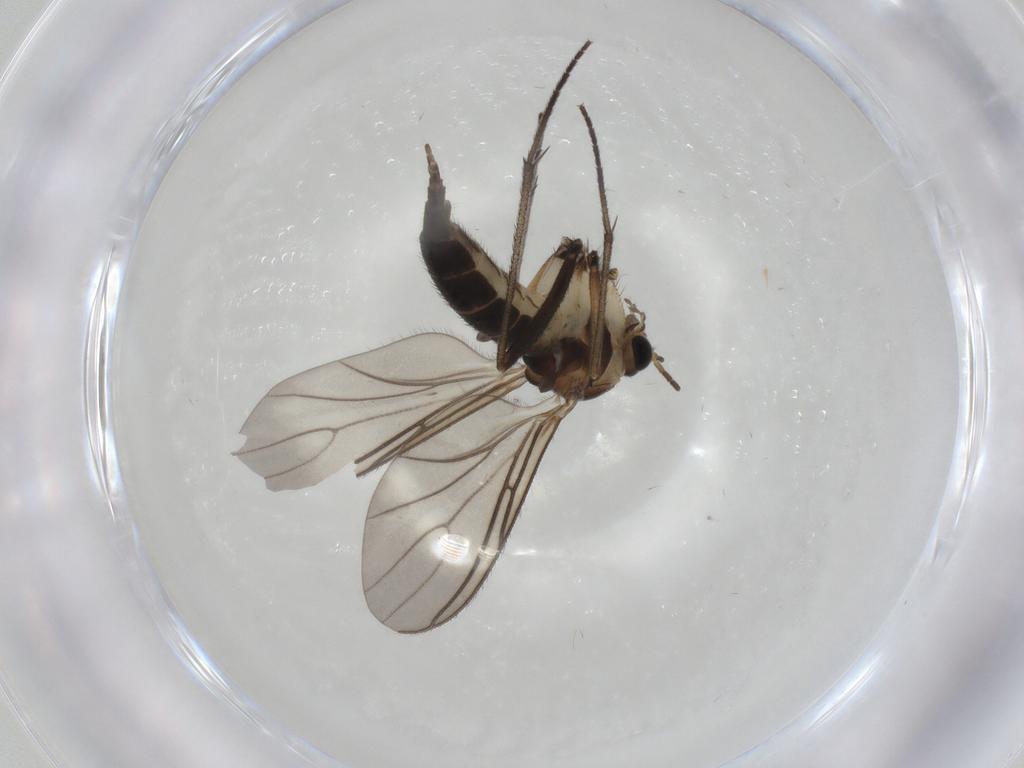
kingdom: Animalia
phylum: Arthropoda
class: Insecta
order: Diptera
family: Sciaridae
